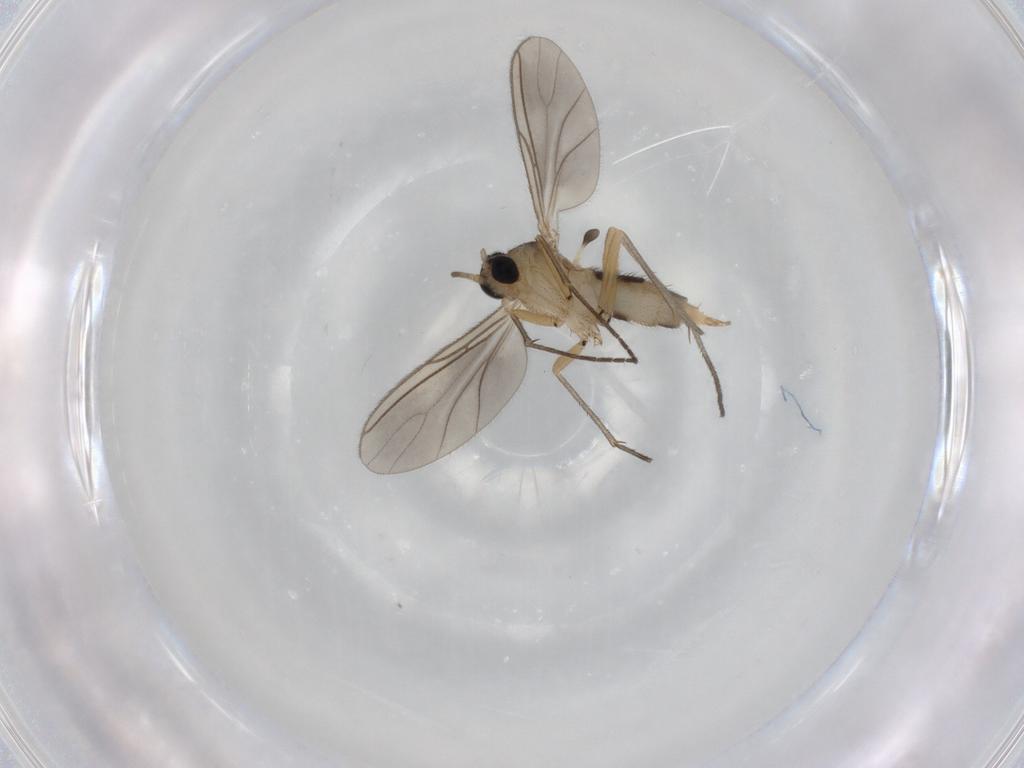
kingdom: Animalia
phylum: Arthropoda
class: Insecta
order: Diptera
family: Sciaridae
